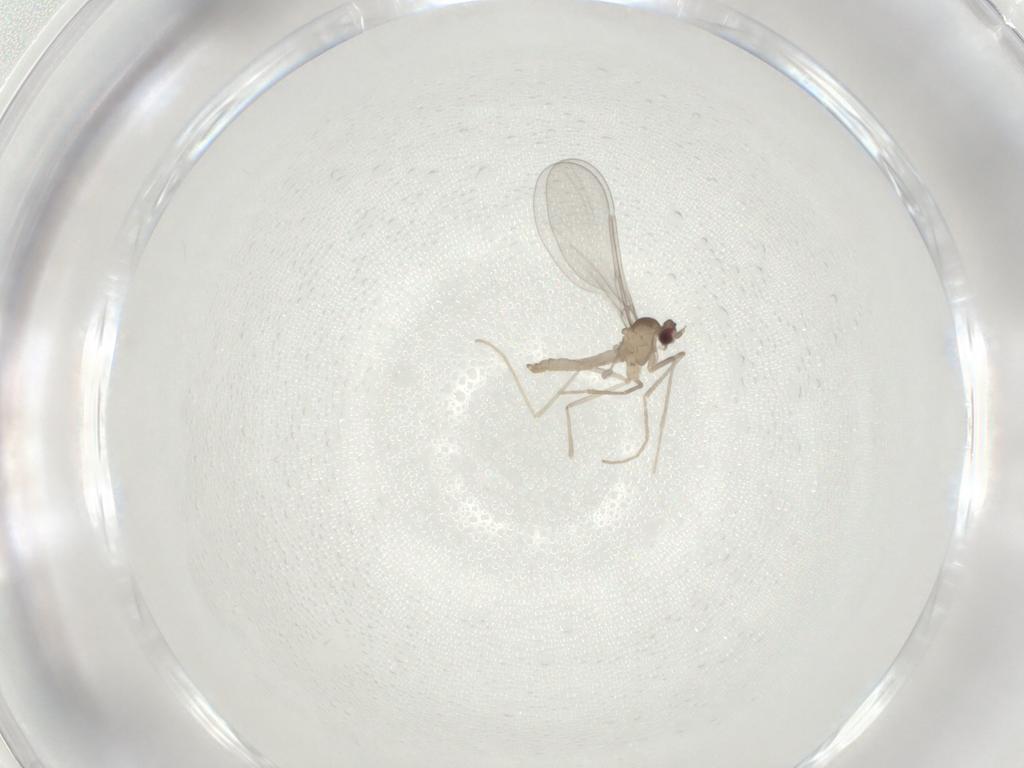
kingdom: Animalia
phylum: Arthropoda
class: Insecta
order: Diptera
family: Cecidomyiidae
